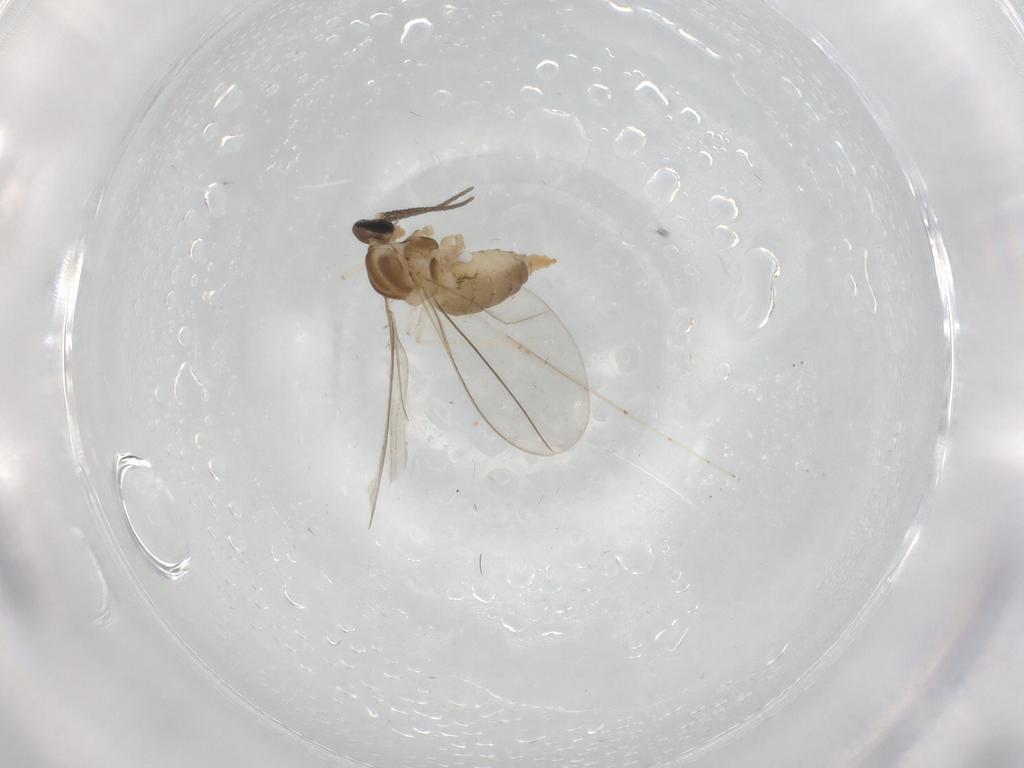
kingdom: Animalia
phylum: Arthropoda
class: Insecta
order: Diptera
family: Cecidomyiidae
